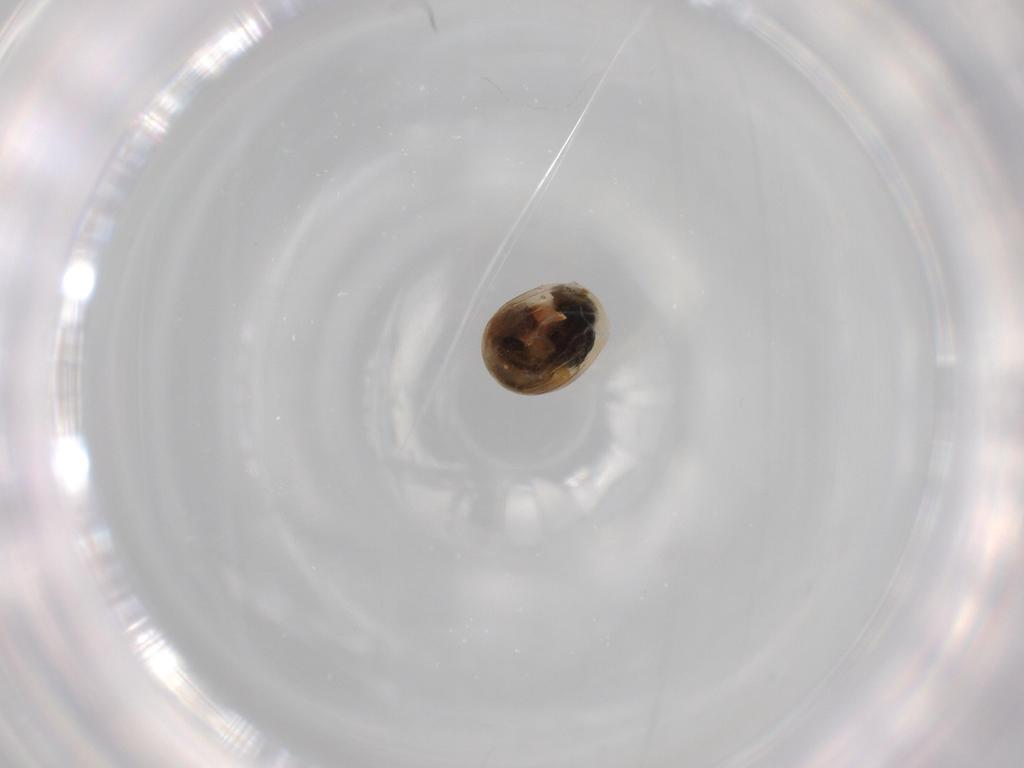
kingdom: Animalia
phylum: Arthropoda
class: Insecta
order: Hymenoptera
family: Scelionidae
